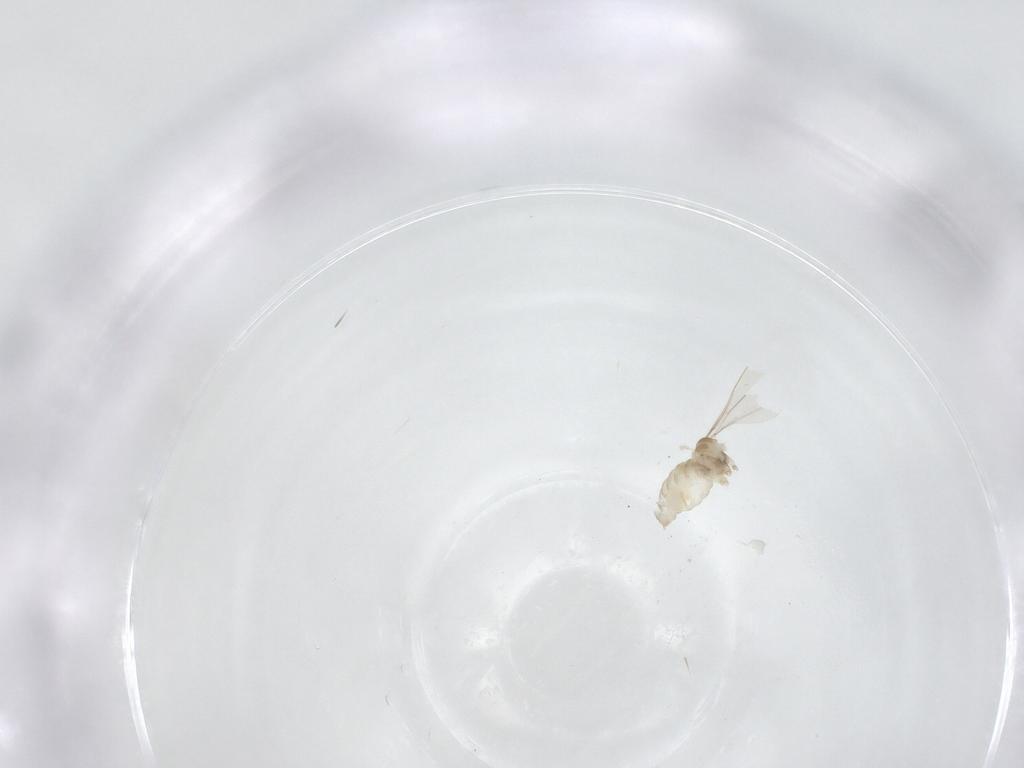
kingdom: Animalia
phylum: Arthropoda
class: Insecta
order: Diptera
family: Cecidomyiidae
